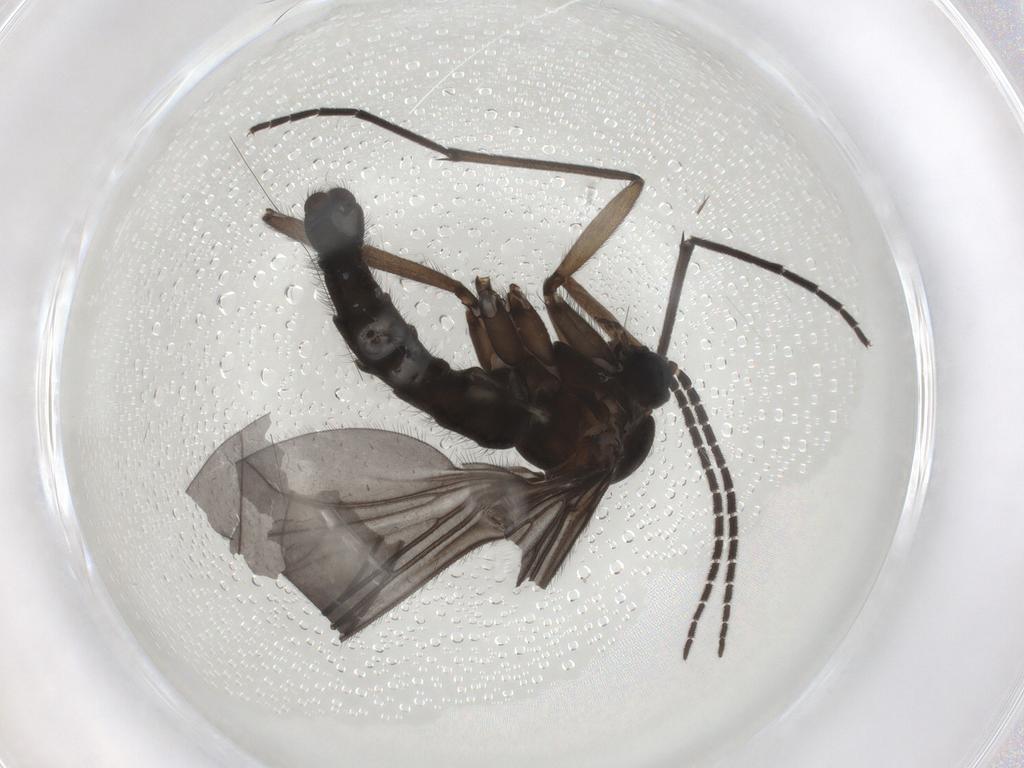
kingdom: Animalia
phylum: Arthropoda
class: Insecta
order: Diptera
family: Sciaridae
